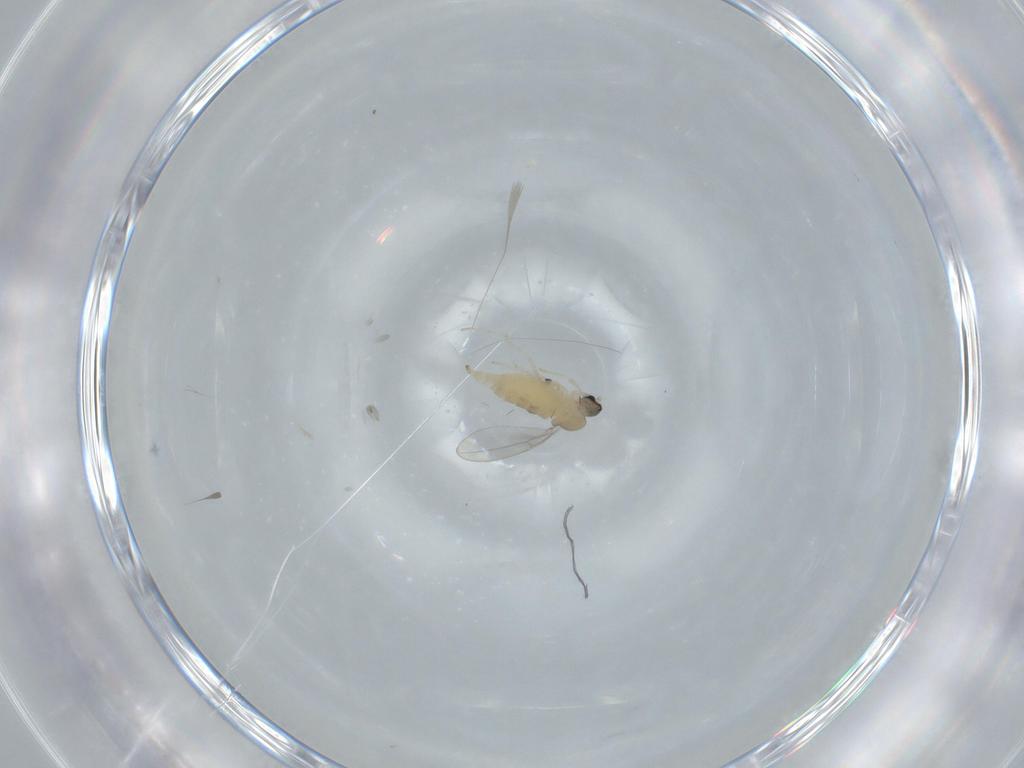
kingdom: Animalia
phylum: Arthropoda
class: Insecta
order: Diptera
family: Cecidomyiidae
